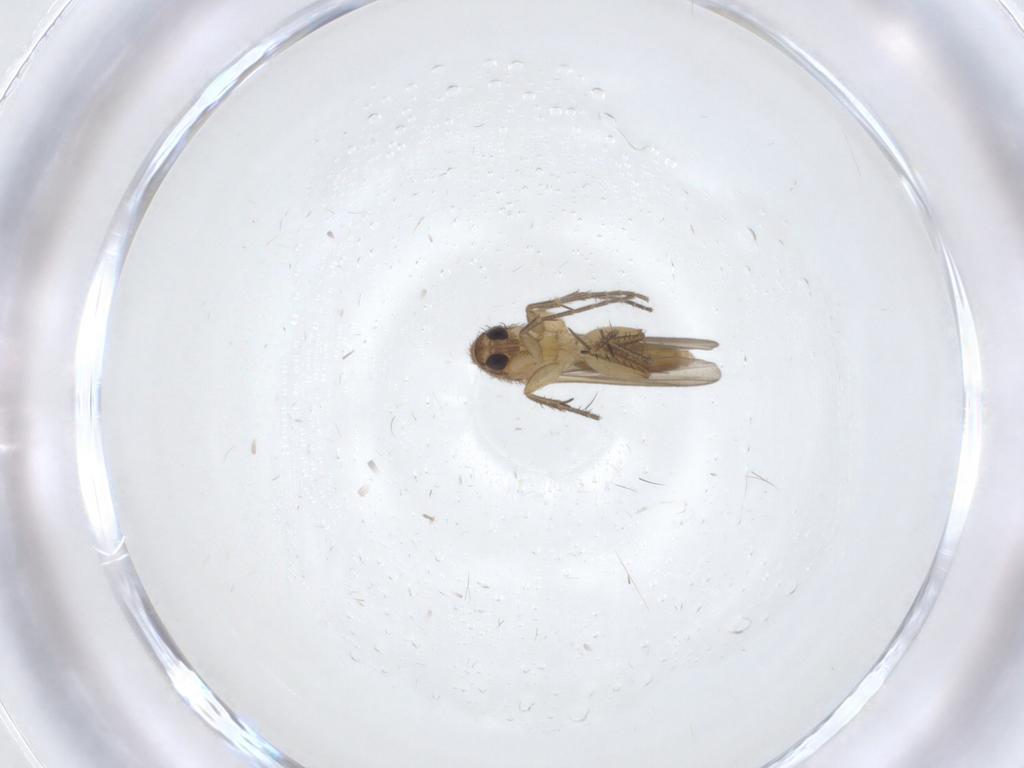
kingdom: Animalia
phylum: Arthropoda
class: Insecta
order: Diptera
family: Mycetophilidae
